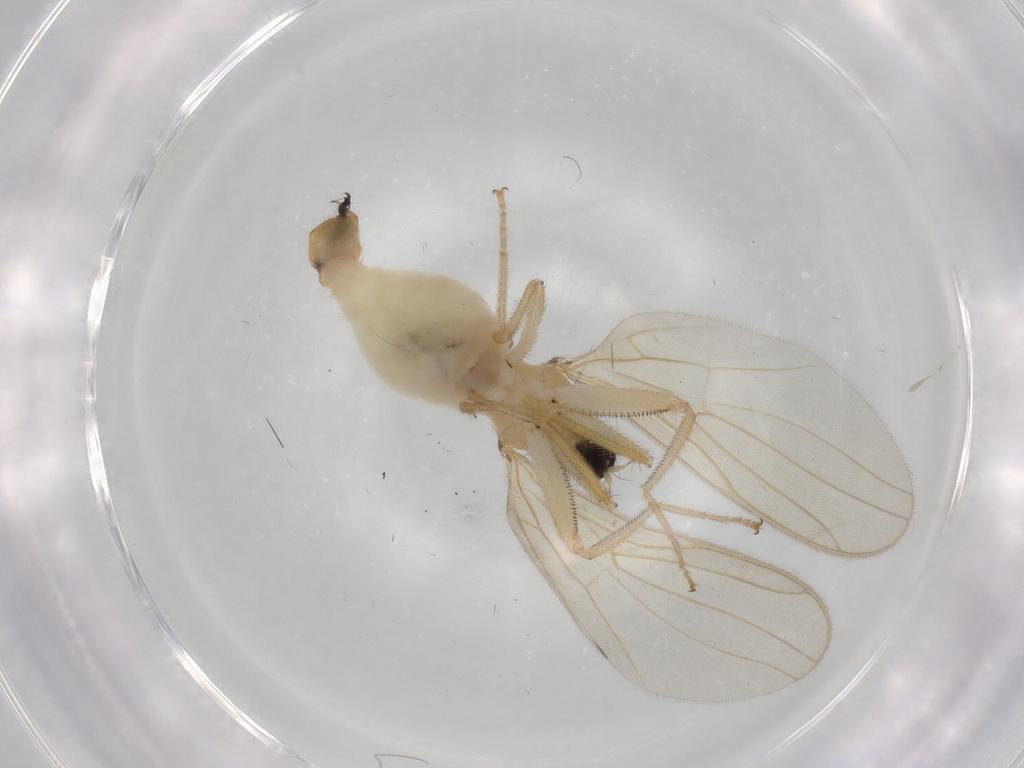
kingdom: Animalia
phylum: Arthropoda
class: Insecta
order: Diptera
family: Hybotidae
